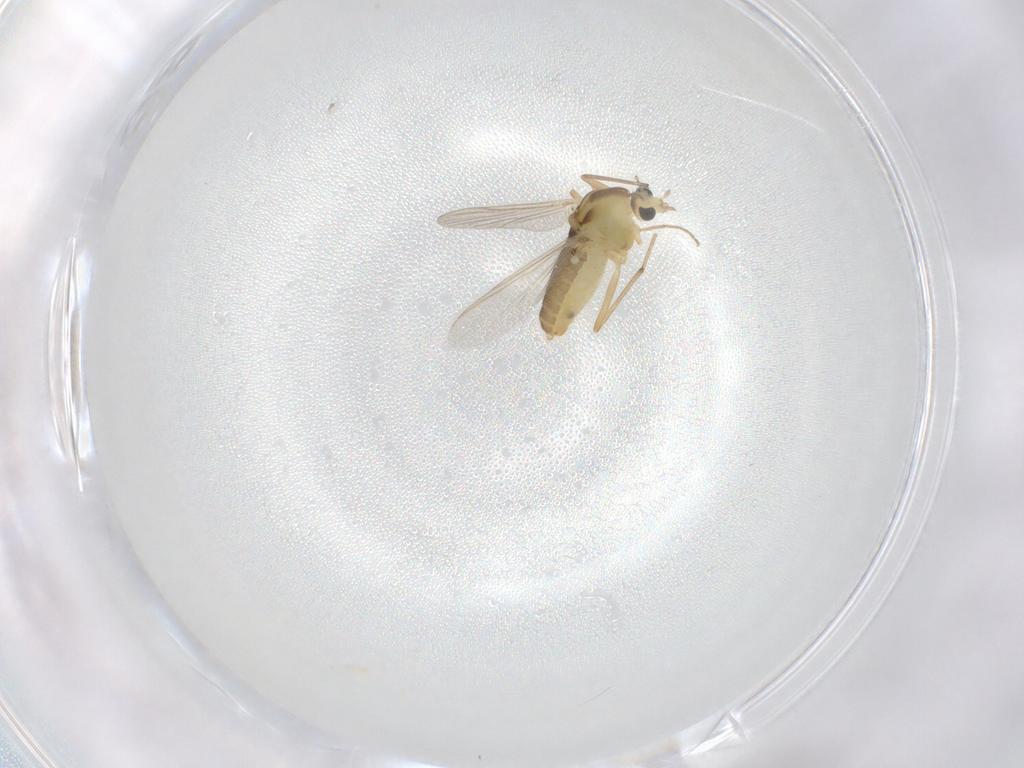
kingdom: Animalia
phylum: Arthropoda
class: Insecta
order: Diptera
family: Chironomidae
